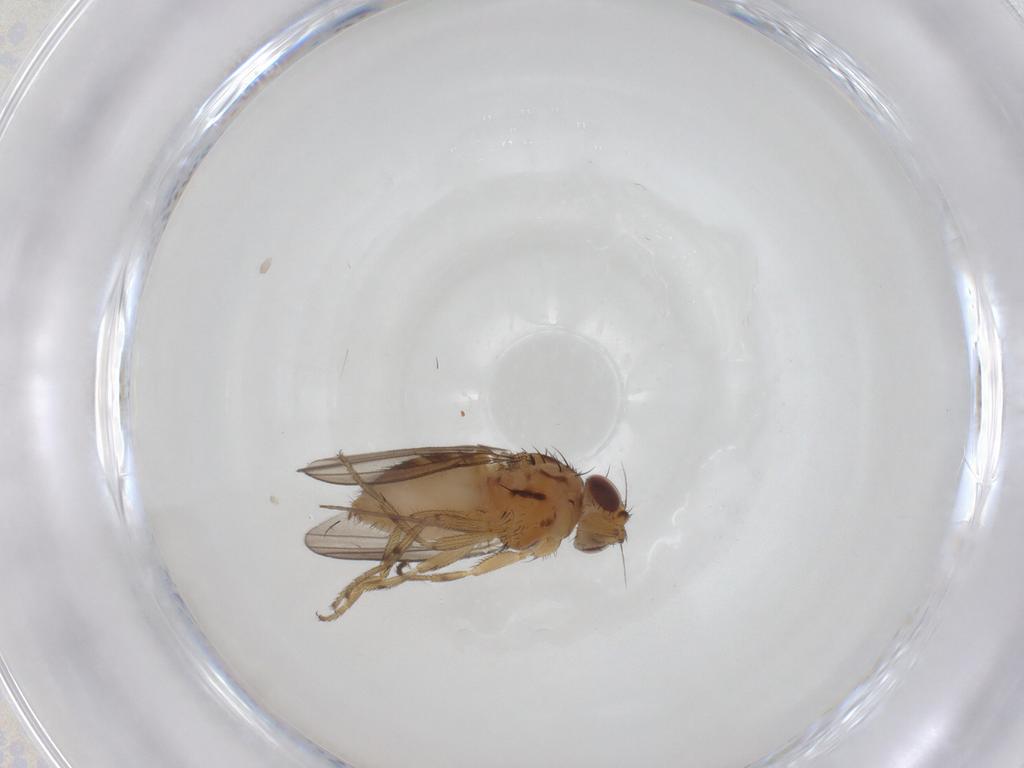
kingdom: Animalia
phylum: Arthropoda
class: Insecta
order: Diptera
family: Chloropidae
